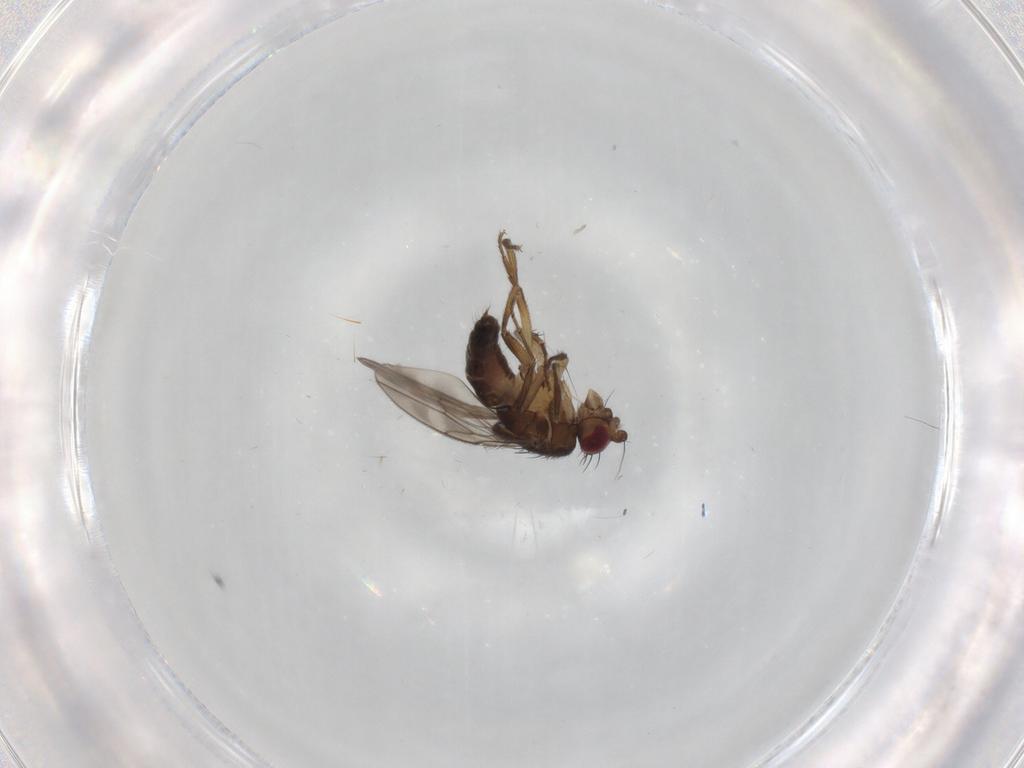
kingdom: Animalia
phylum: Arthropoda
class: Insecta
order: Diptera
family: Sphaeroceridae
